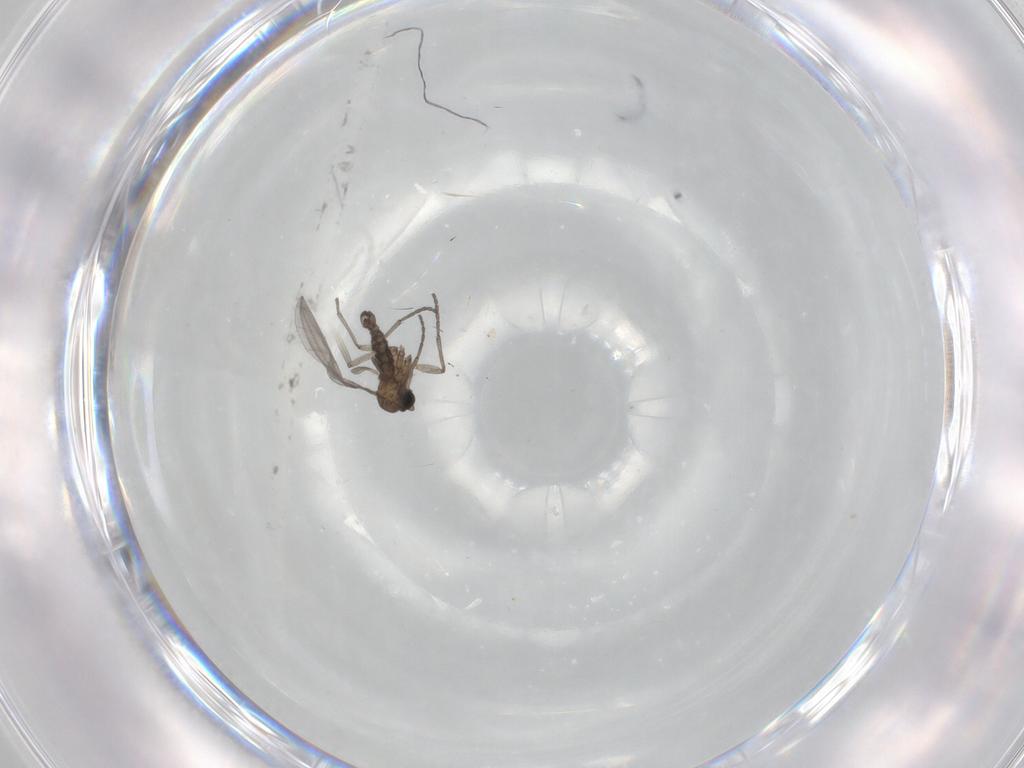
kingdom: Animalia
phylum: Arthropoda
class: Insecta
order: Diptera
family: Sciaridae
